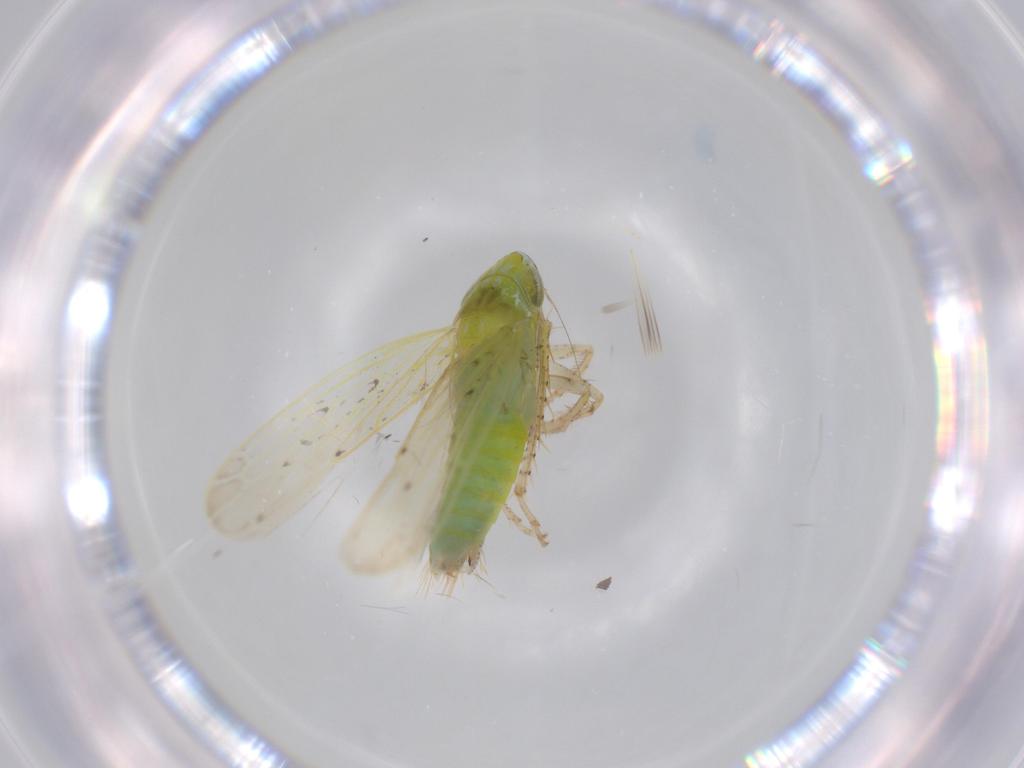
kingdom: Animalia
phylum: Arthropoda
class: Insecta
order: Hemiptera
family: Cicadellidae
